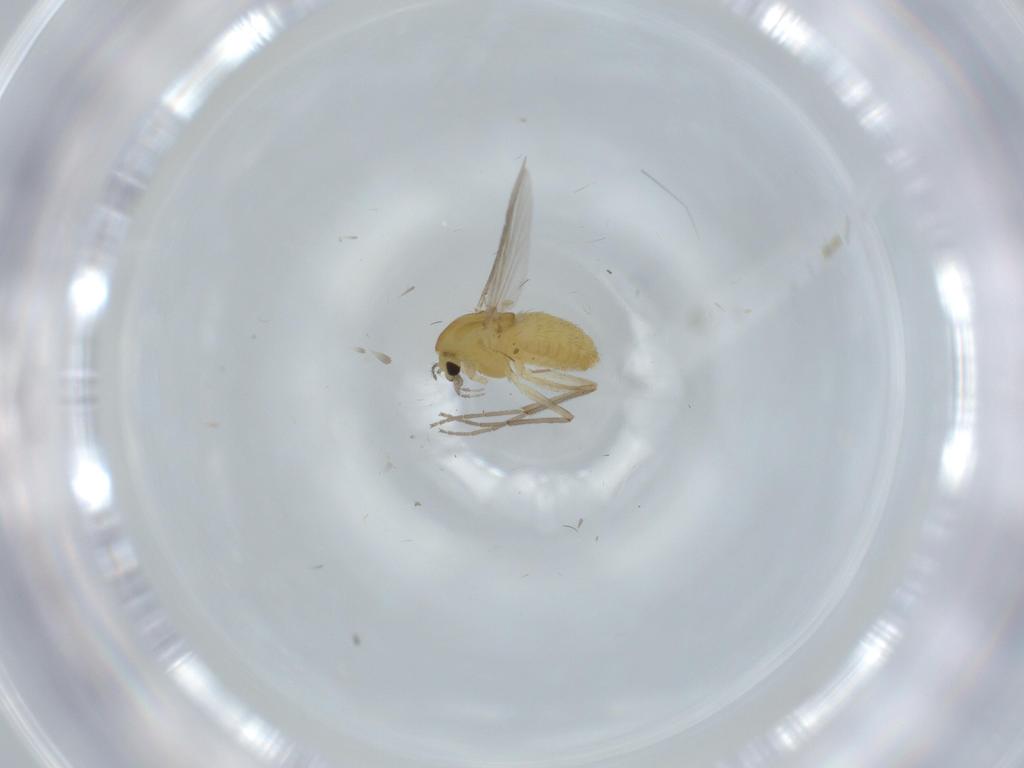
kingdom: Animalia
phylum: Arthropoda
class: Insecta
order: Diptera
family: Chironomidae
